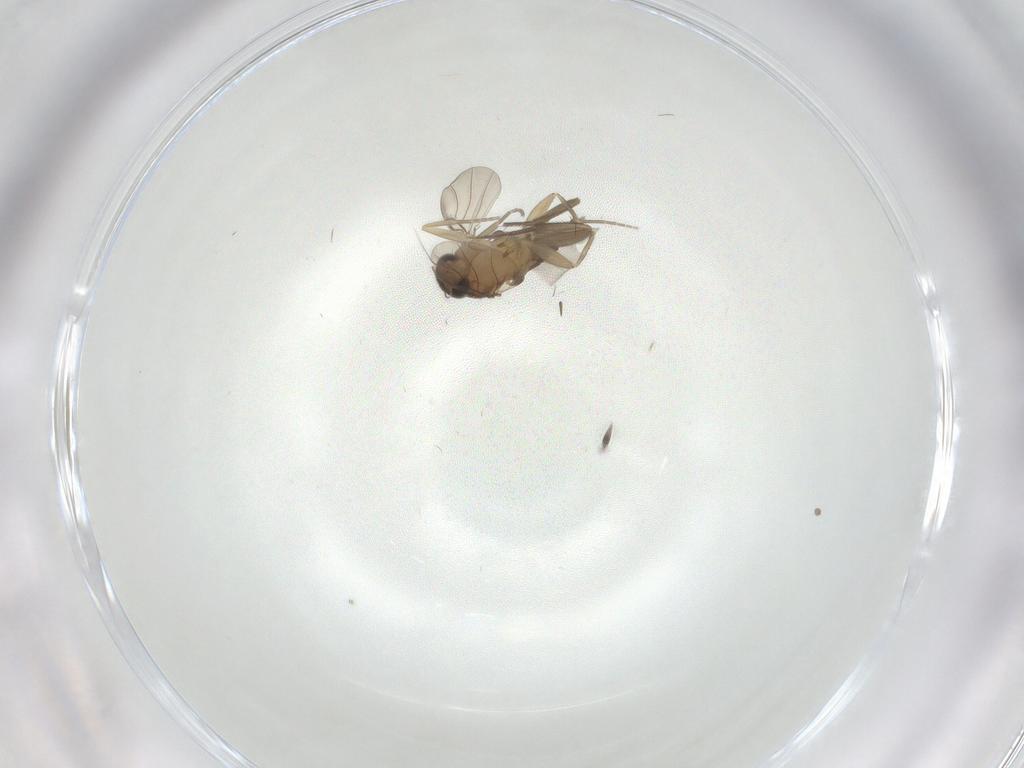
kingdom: Animalia
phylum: Arthropoda
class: Insecta
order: Diptera
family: Phoridae
